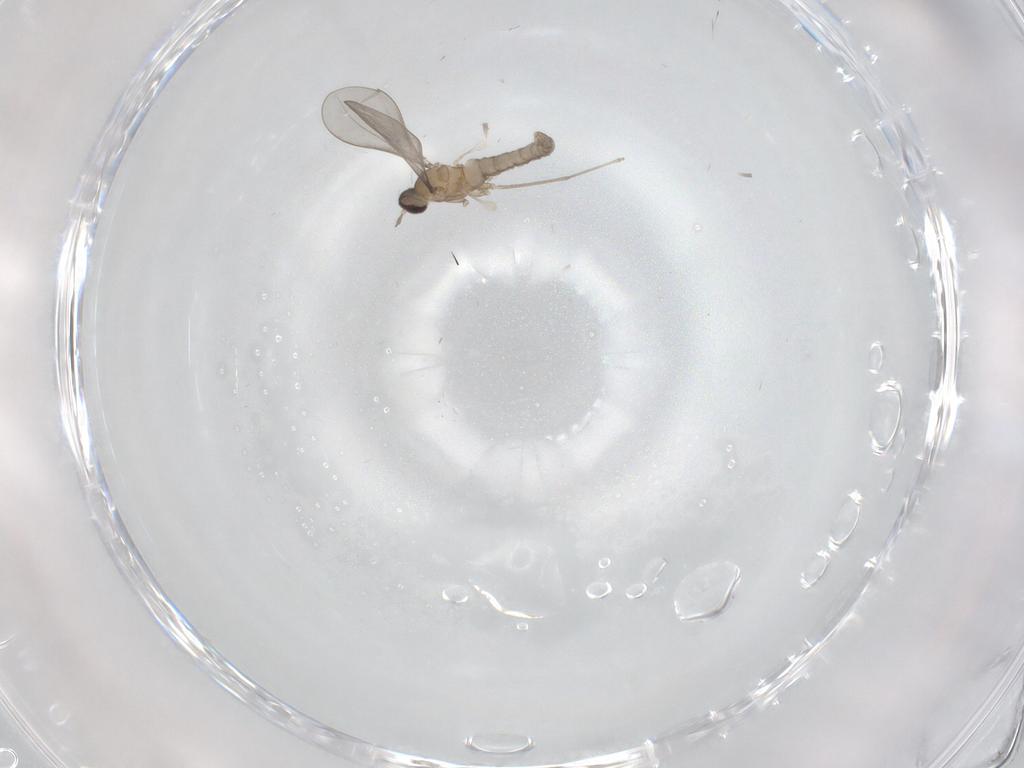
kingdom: Animalia
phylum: Arthropoda
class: Insecta
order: Diptera
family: Cecidomyiidae
